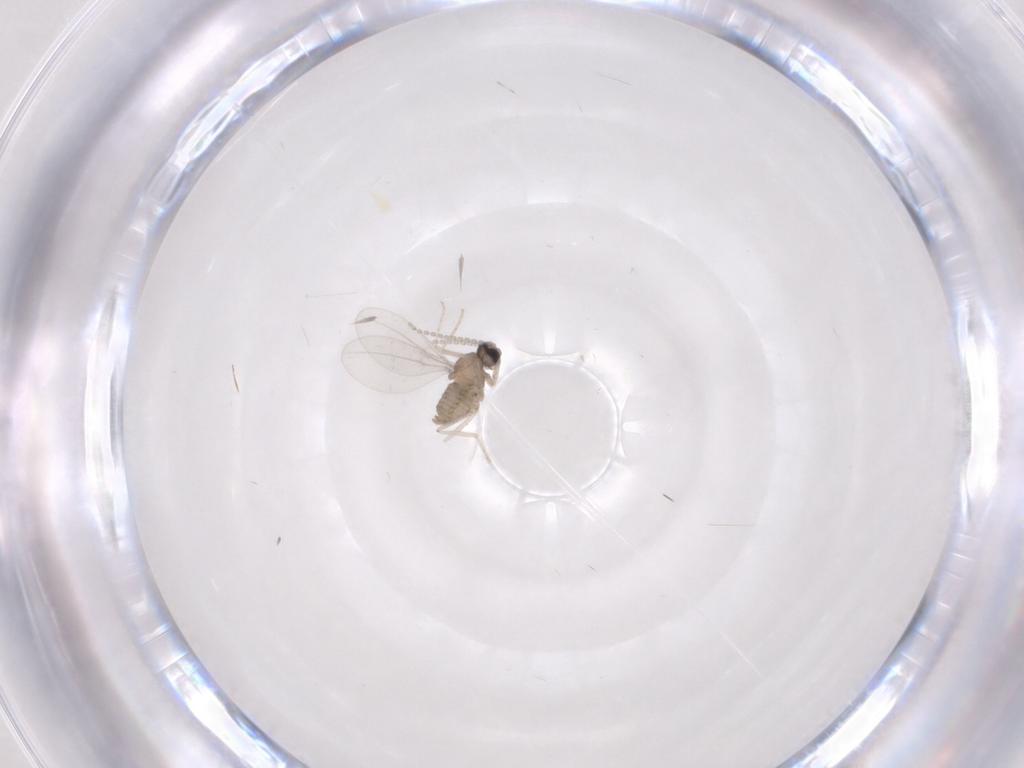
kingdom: Animalia
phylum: Arthropoda
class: Insecta
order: Diptera
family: Cecidomyiidae
